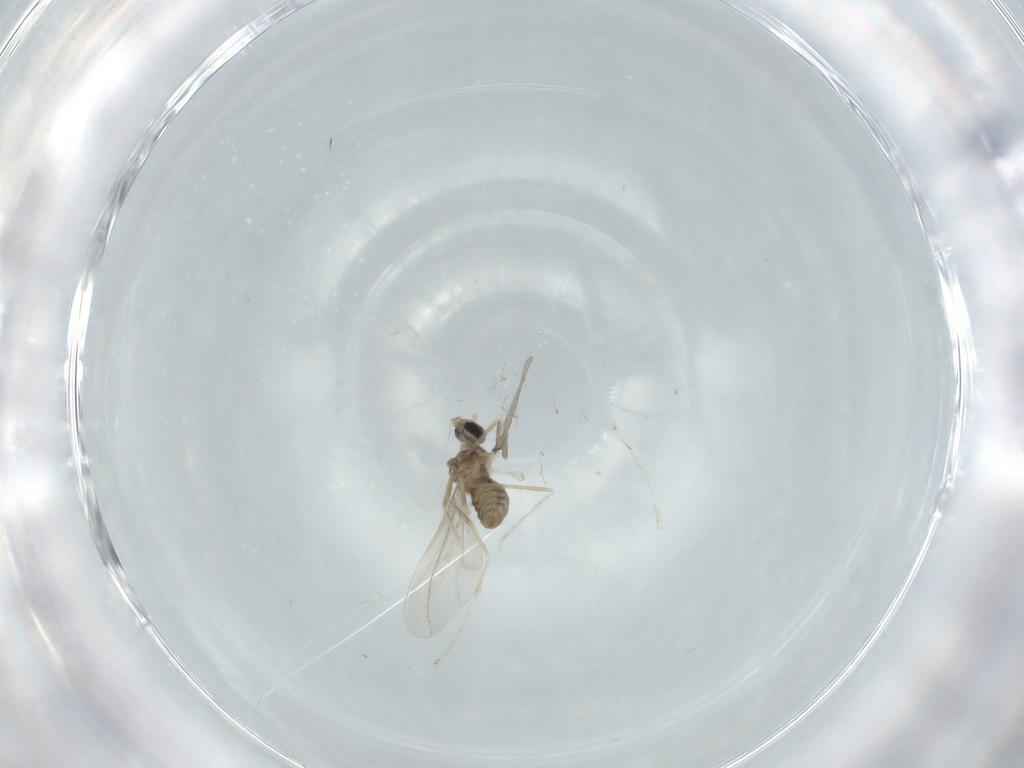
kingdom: Animalia
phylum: Arthropoda
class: Insecta
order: Diptera
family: Cecidomyiidae
